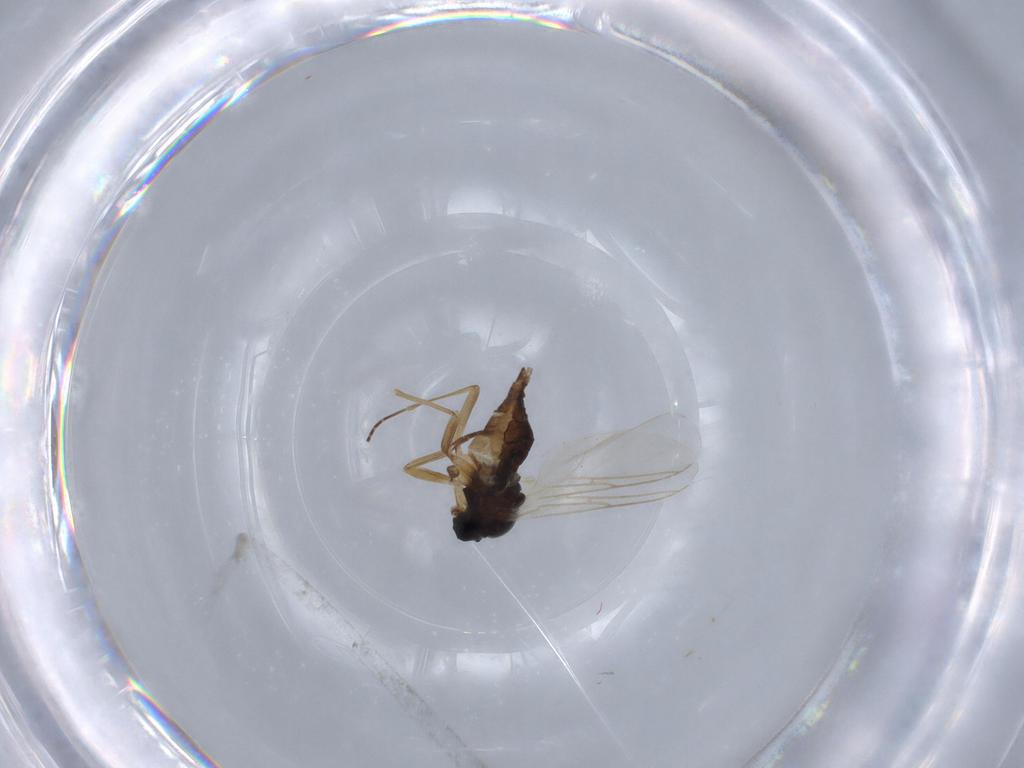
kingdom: Animalia
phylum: Arthropoda
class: Insecta
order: Diptera
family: Sciaridae
